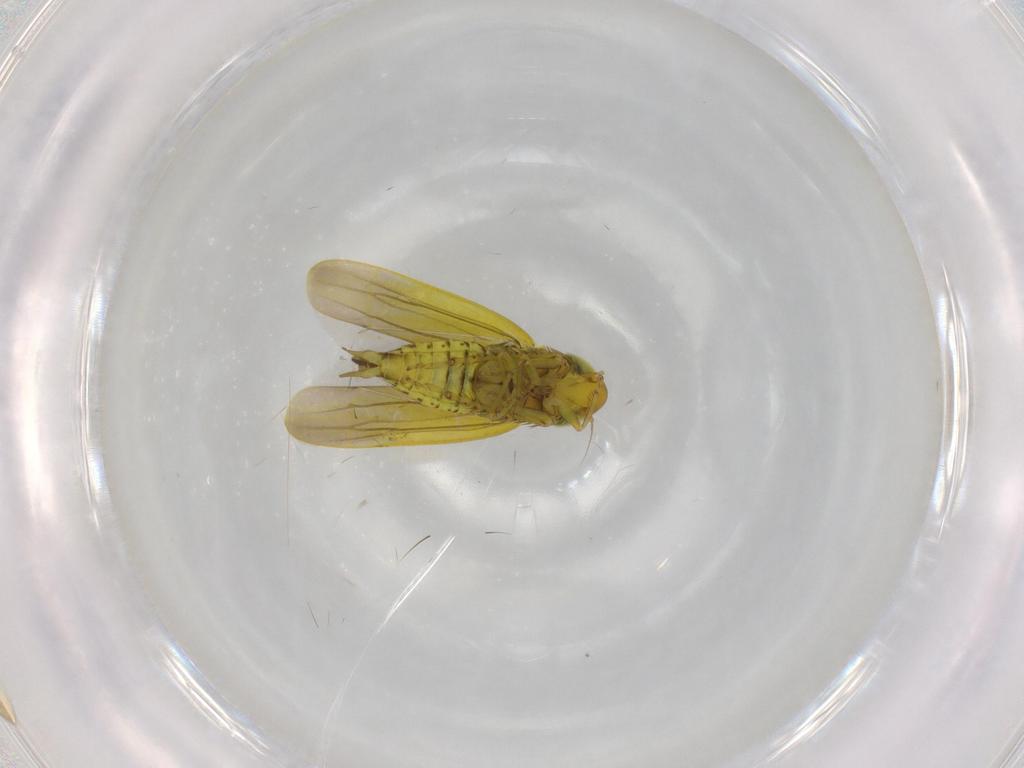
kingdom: Animalia
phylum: Arthropoda
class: Insecta
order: Hemiptera
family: Cicadellidae
